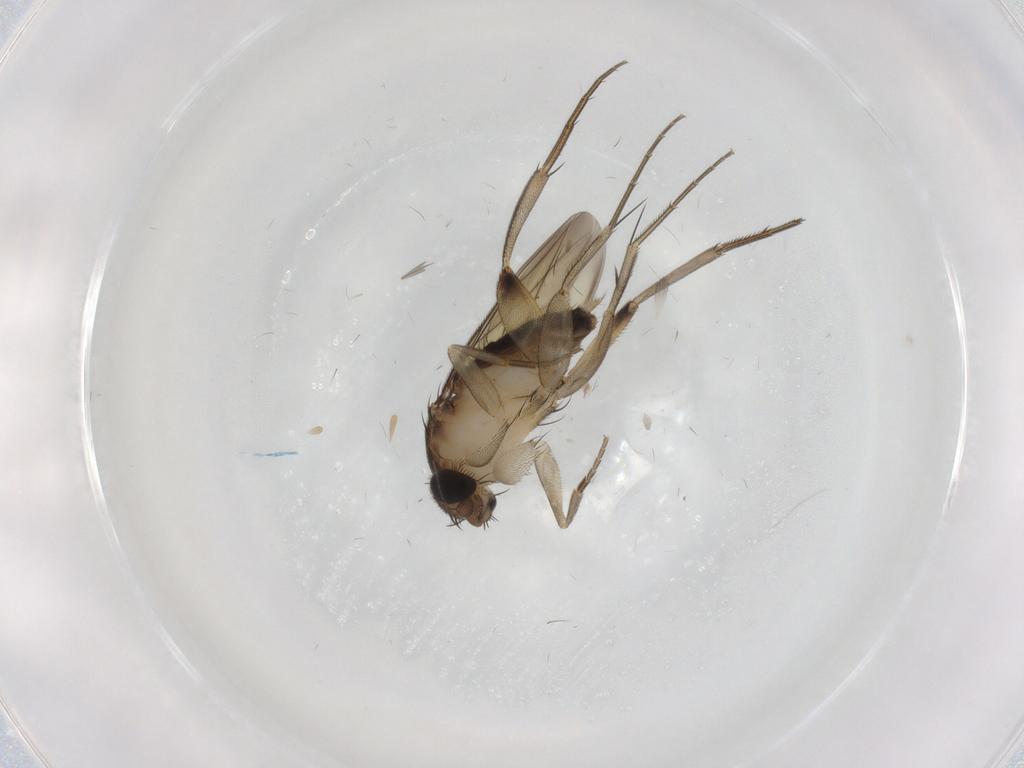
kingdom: Animalia
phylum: Arthropoda
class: Insecta
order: Diptera
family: Phoridae
